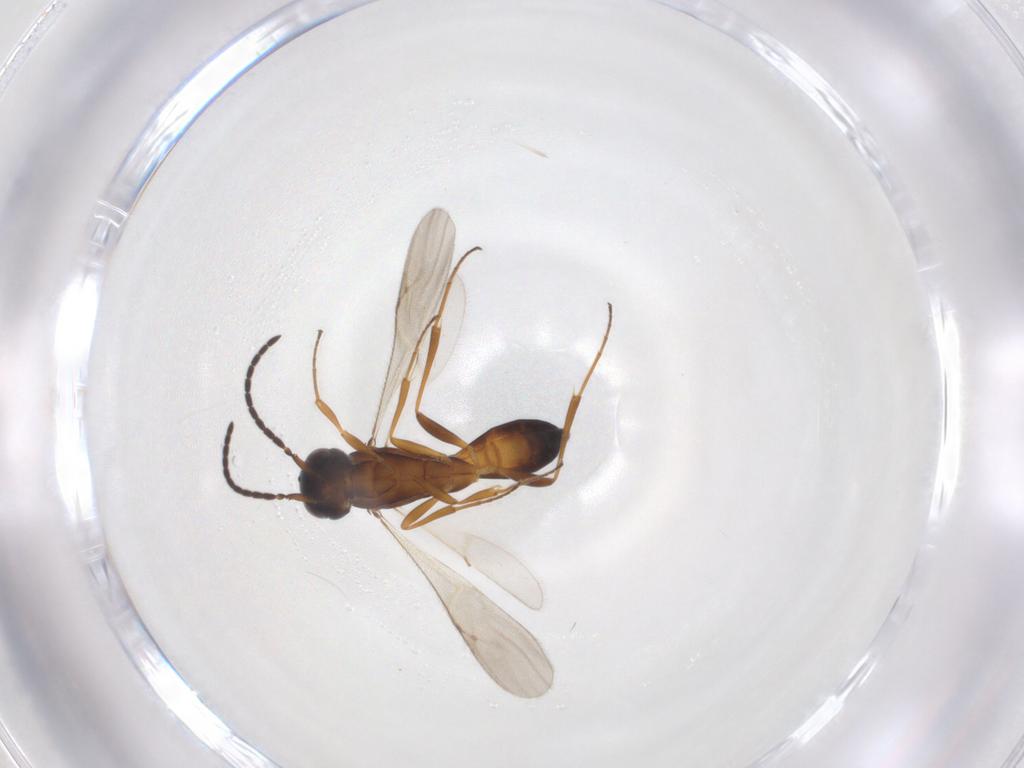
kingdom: Animalia
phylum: Arthropoda
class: Insecta
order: Hymenoptera
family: Scelionidae
